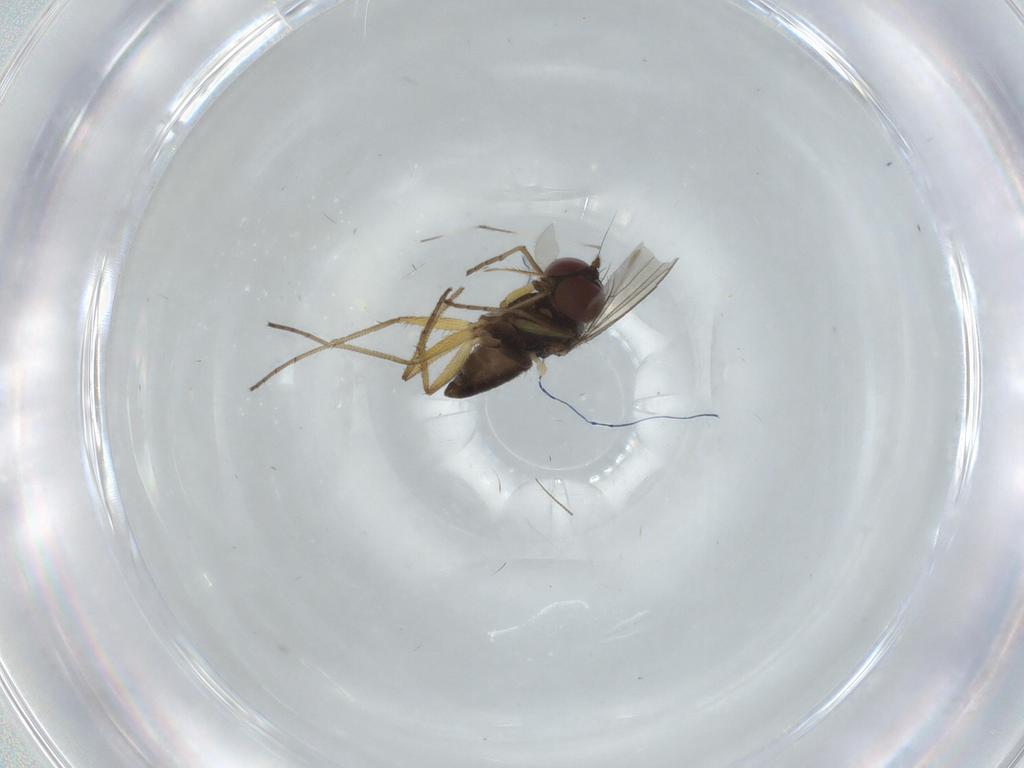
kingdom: Animalia
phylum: Arthropoda
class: Insecta
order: Diptera
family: Dolichopodidae
